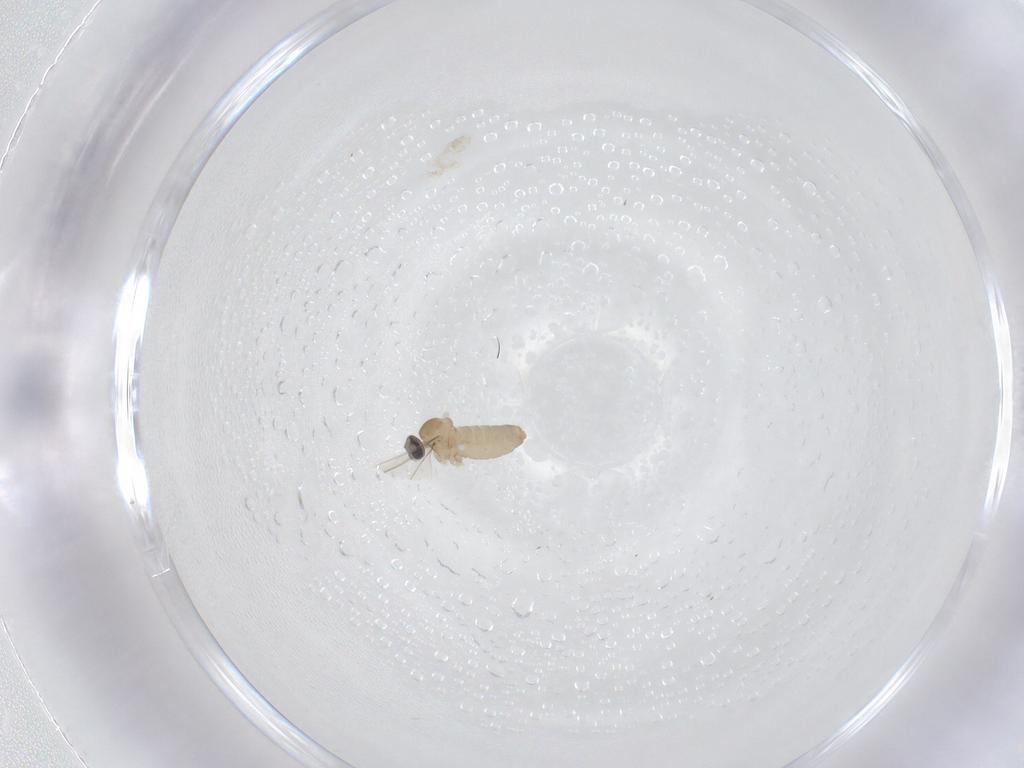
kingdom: Animalia
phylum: Arthropoda
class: Insecta
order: Diptera
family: Cecidomyiidae
